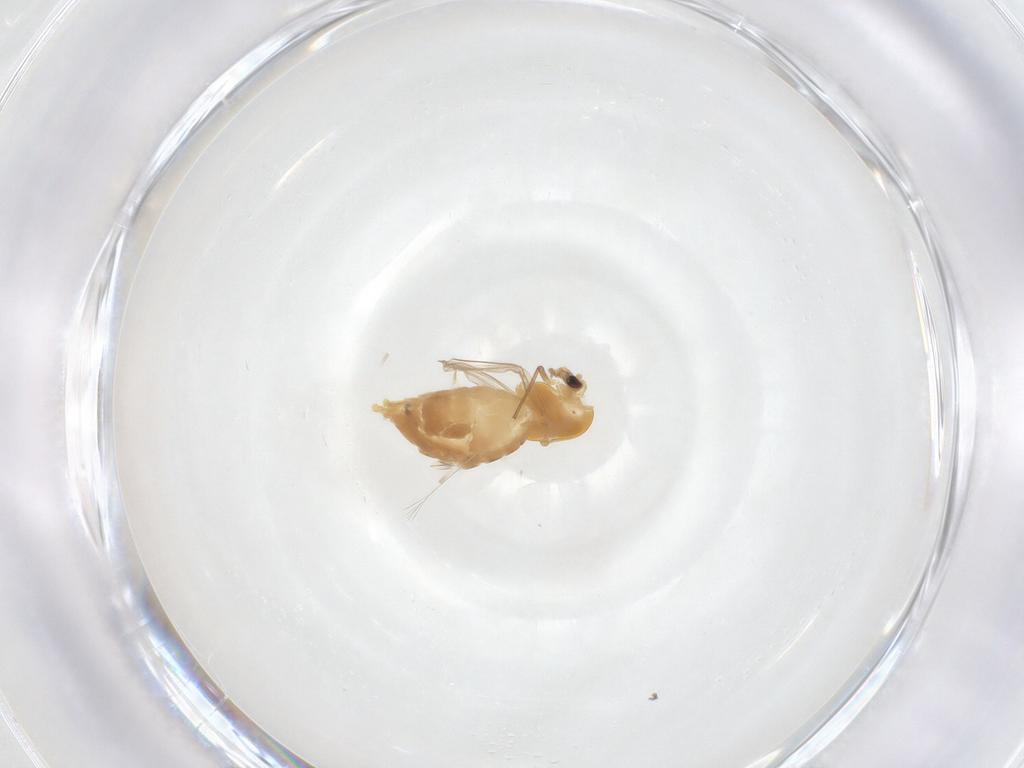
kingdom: Animalia
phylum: Arthropoda
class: Insecta
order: Diptera
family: Chironomidae
